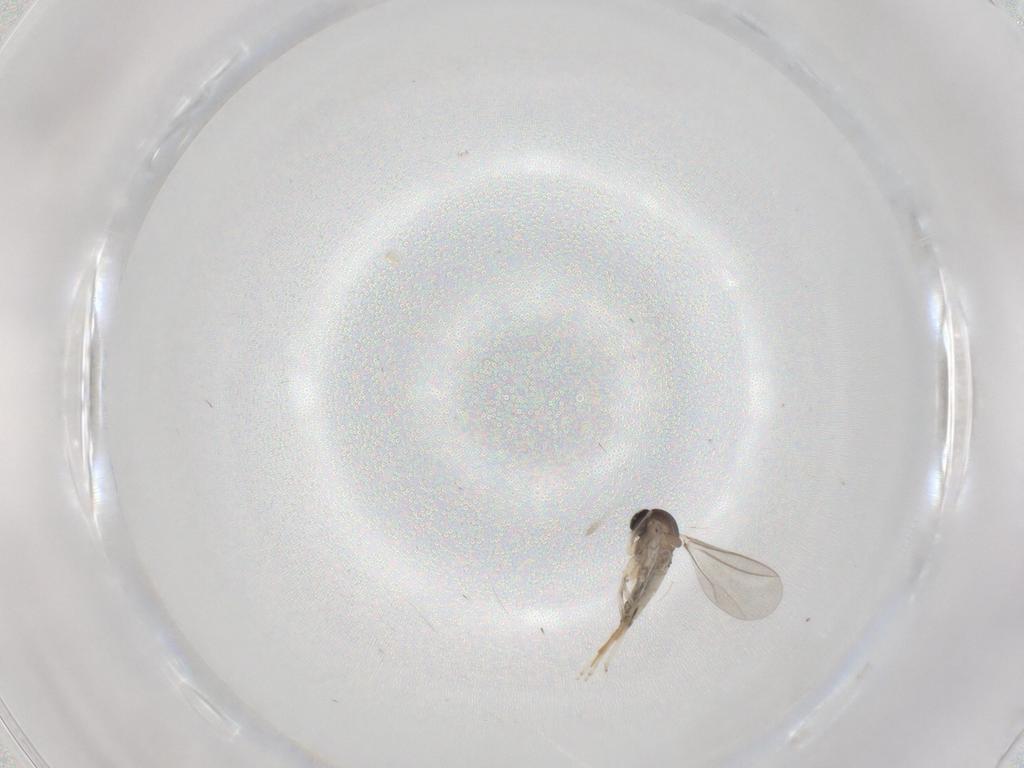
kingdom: Animalia
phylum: Arthropoda
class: Insecta
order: Diptera
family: Cecidomyiidae
